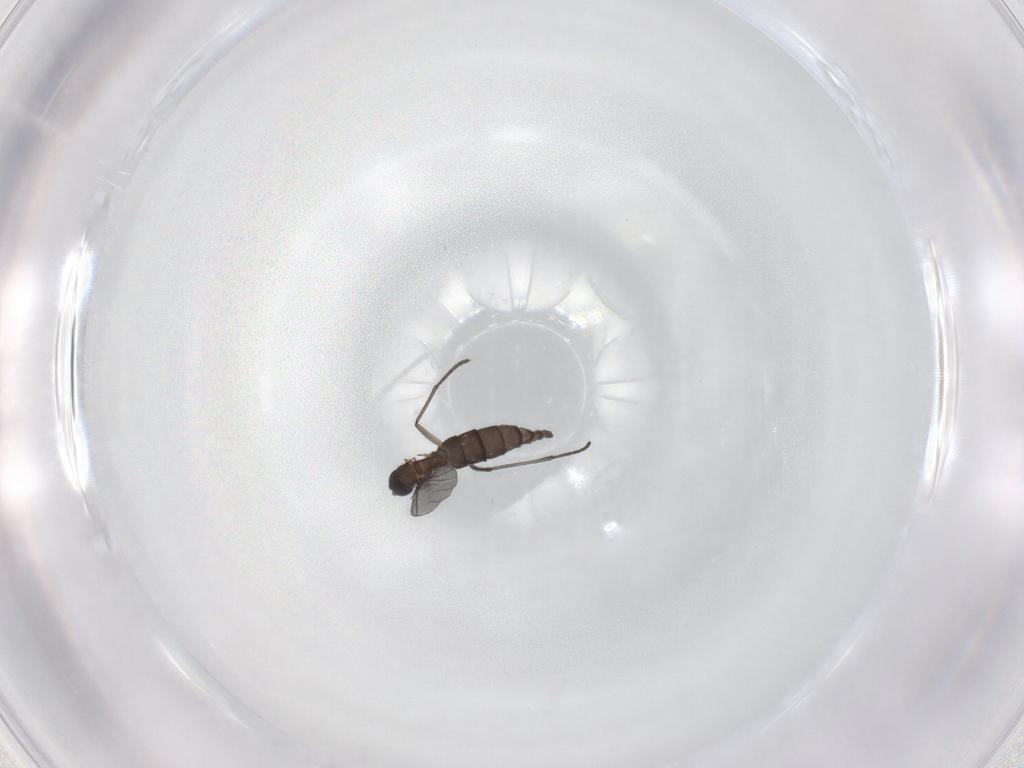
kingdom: Animalia
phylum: Arthropoda
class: Insecta
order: Diptera
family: Sciaridae
